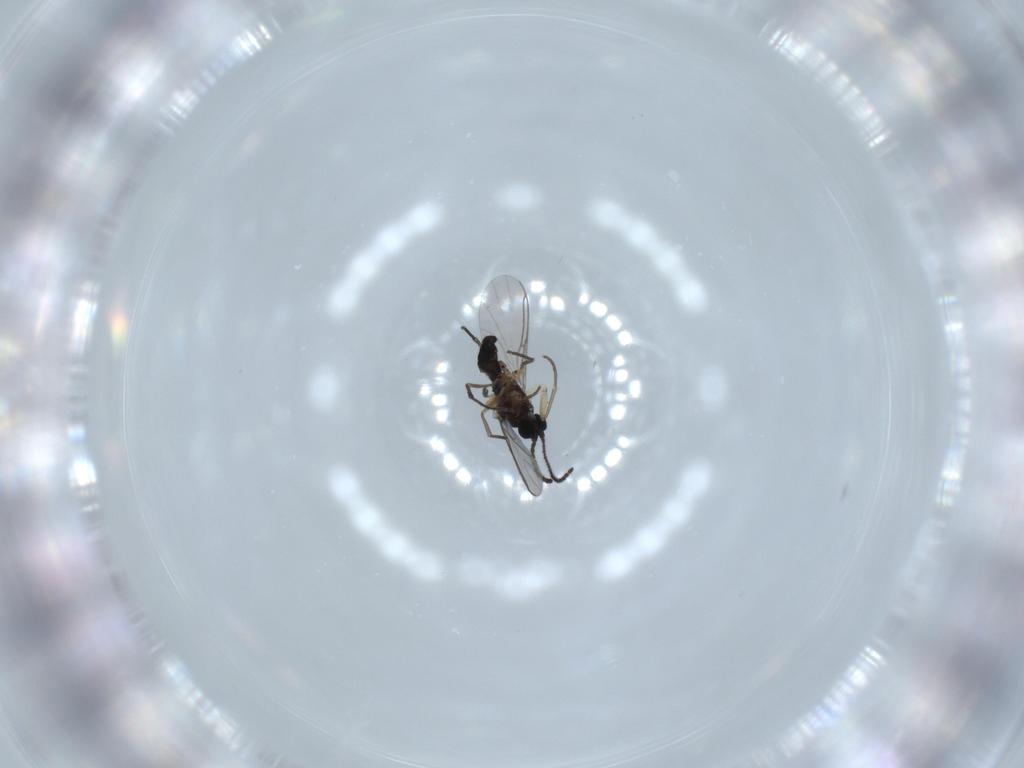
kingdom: Animalia
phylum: Arthropoda
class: Insecta
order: Diptera
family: Sciaridae
